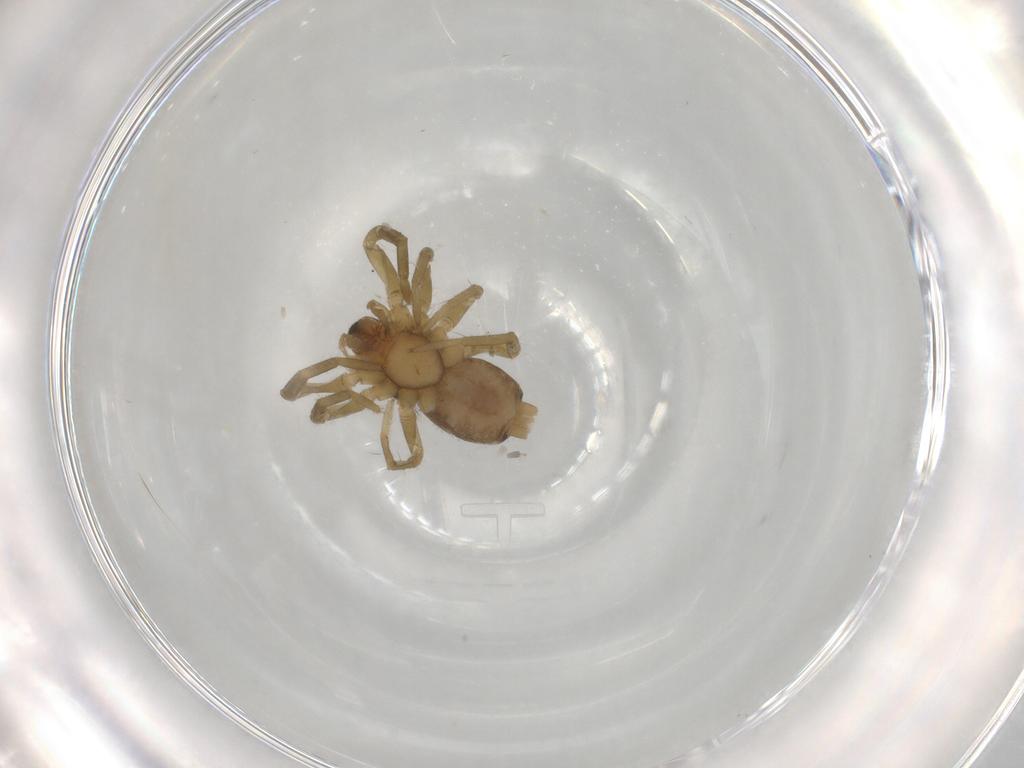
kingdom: Animalia
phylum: Arthropoda
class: Arachnida
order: Araneae
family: Gnaphosidae
